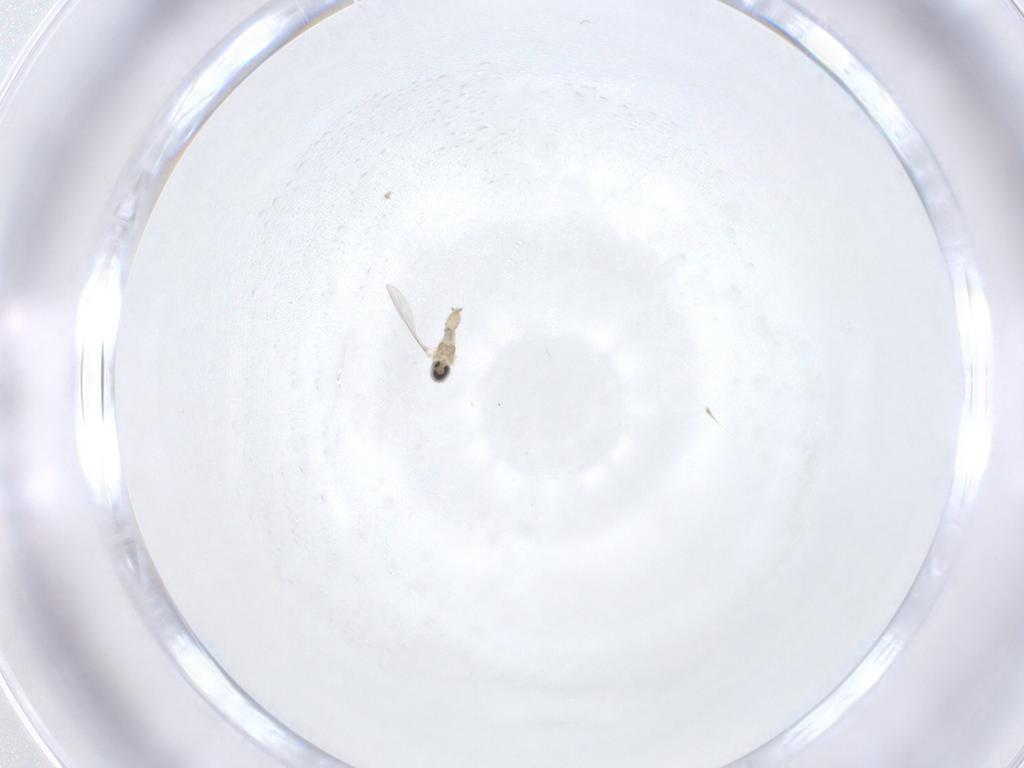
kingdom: Animalia
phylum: Arthropoda
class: Insecta
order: Diptera
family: Cecidomyiidae
